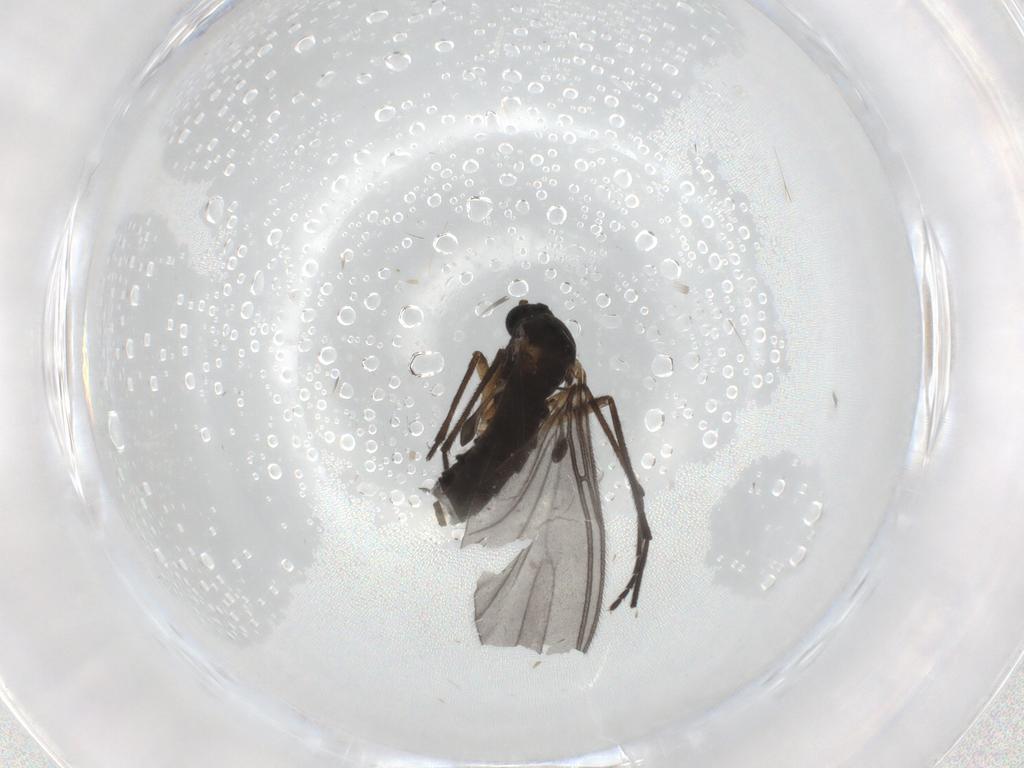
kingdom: Animalia
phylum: Arthropoda
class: Insecta
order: Diptera
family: Sciaridae
